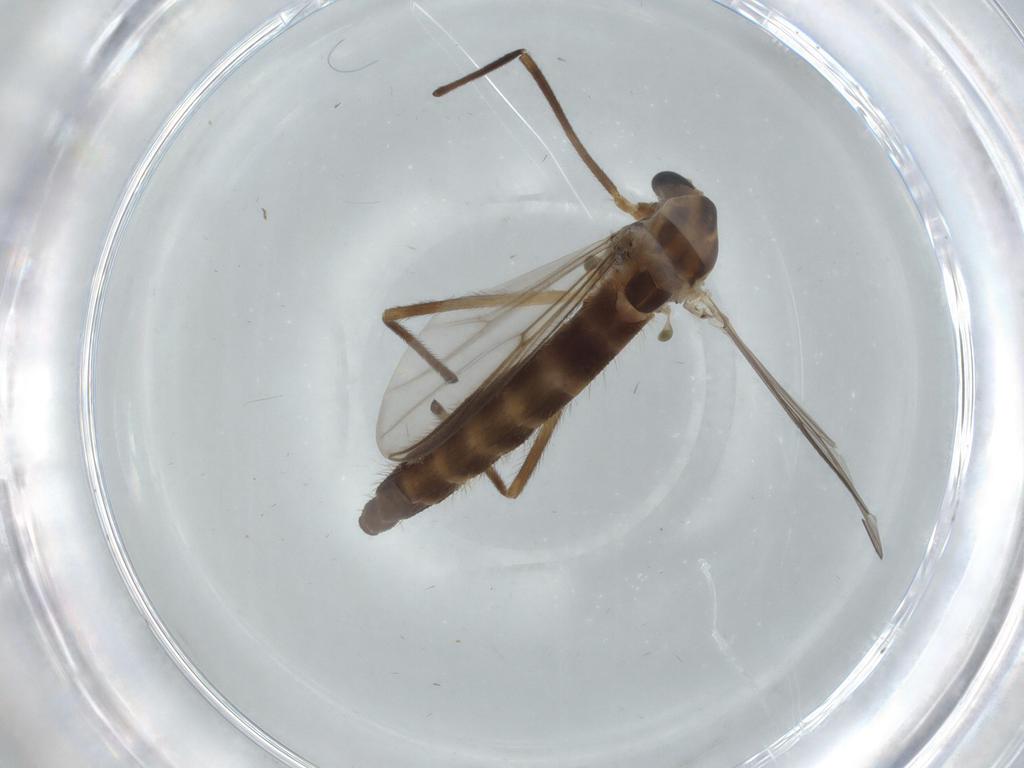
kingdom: Animalia
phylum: Arthropoda
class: Insecta
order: Diptera
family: Chironomidae
